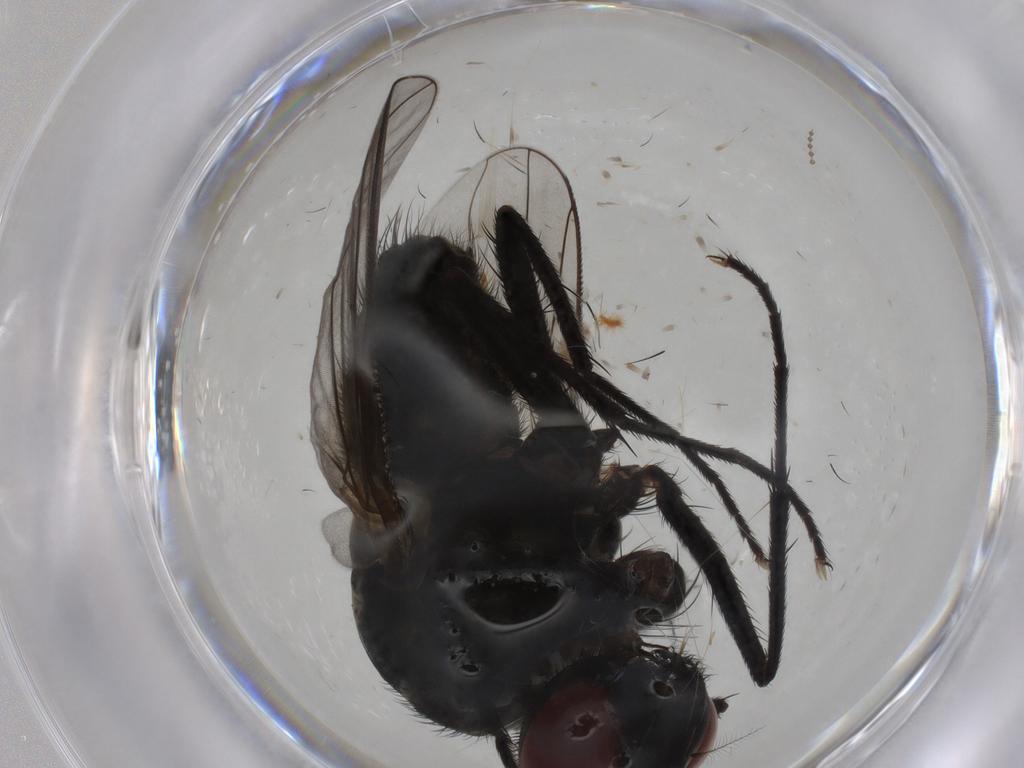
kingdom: Animalia
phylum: Arthropoda
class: Insecta
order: Diptera
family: Muscidae
